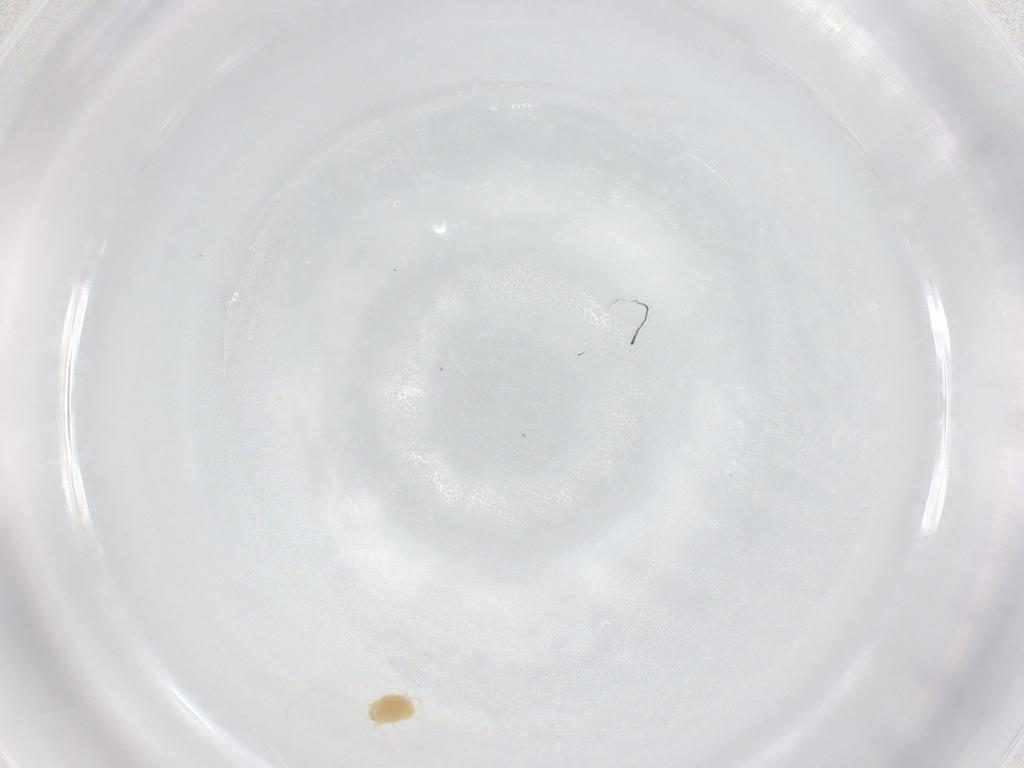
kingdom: Animalia
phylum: Arthropoda
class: Arachnida
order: Trombidiformes
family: Tetranychidae
